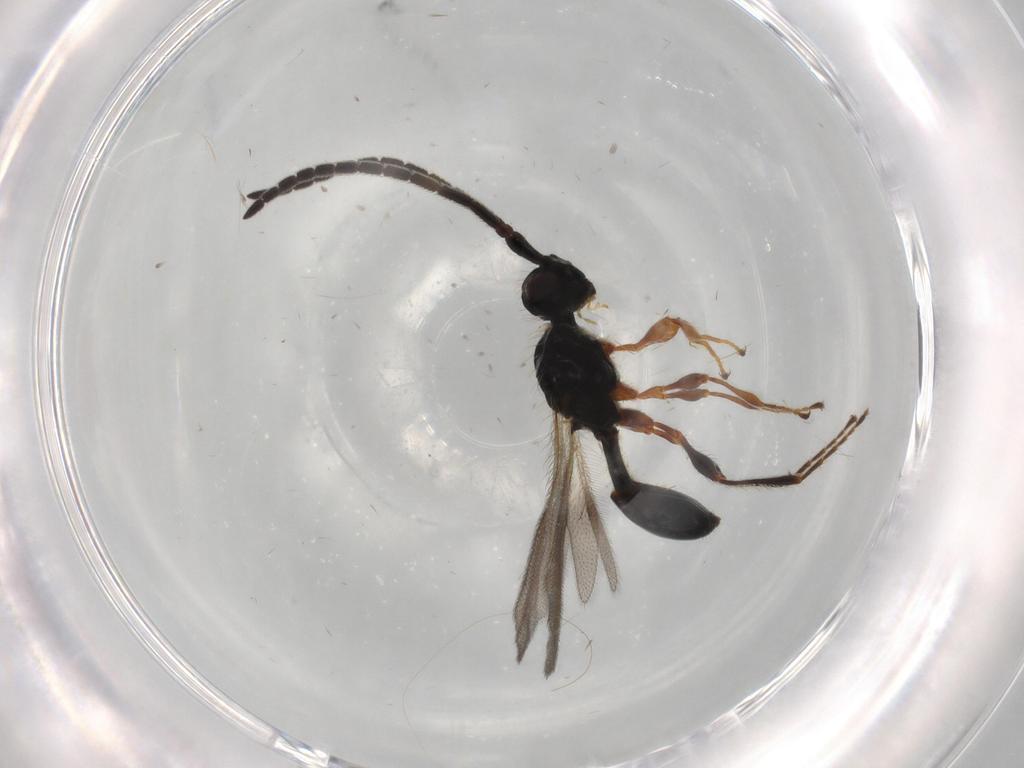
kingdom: Animalia
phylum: Arthropoda
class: Insecta
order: Hymenoptera
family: Diapriidae
